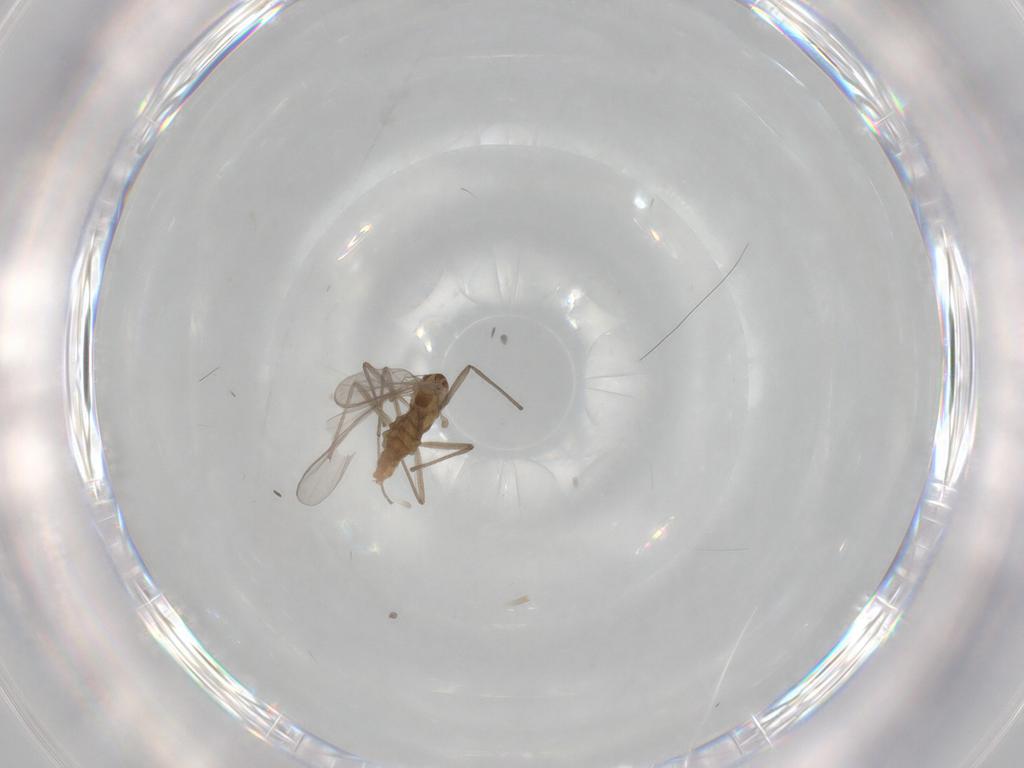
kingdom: Animalia
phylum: Arthropoda
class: Insecta
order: Diptera
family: Chironomidae
